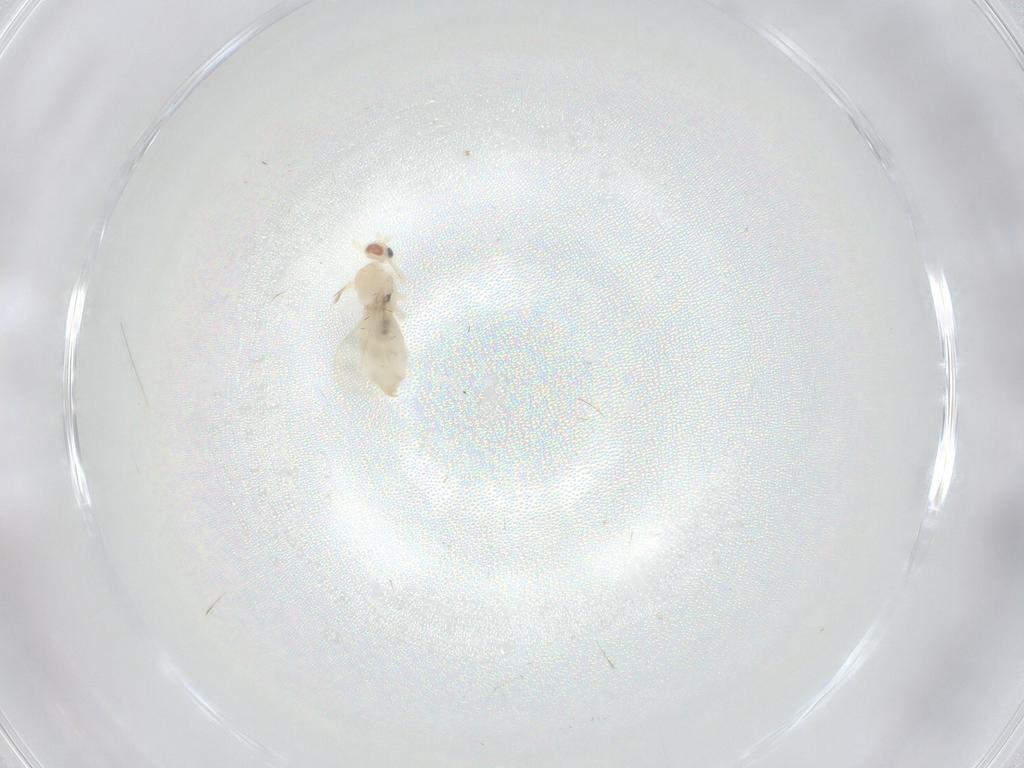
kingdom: Animalia
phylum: Arthropoda
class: Insecta
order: Diptera
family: Cecidomyiidae
